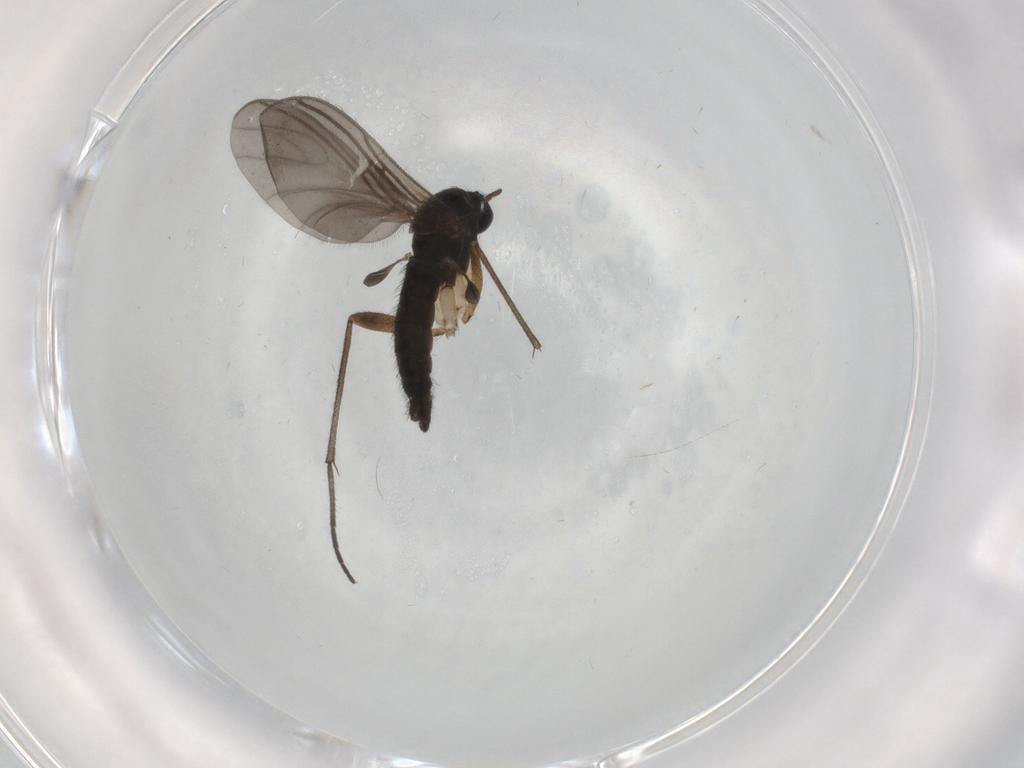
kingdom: Animalia
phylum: Arthropoda
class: Insecta
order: Diptera
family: Sciaridae
